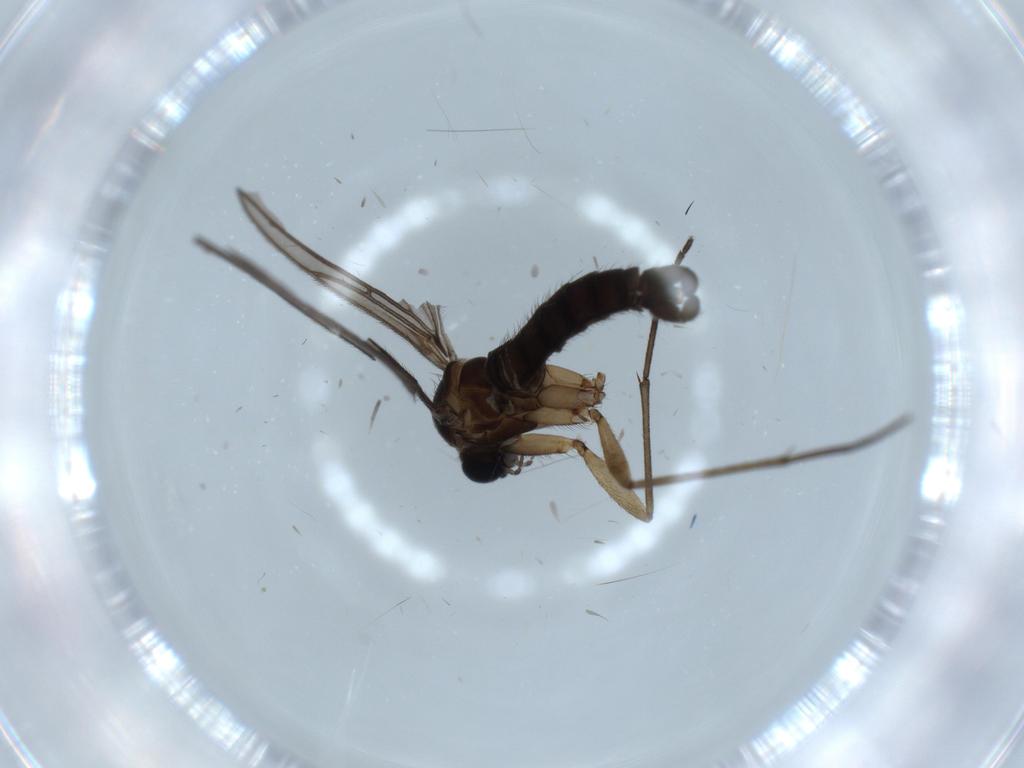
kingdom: Animalia
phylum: Arthropoda
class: Insecta
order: Diptera
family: Sciaridae
